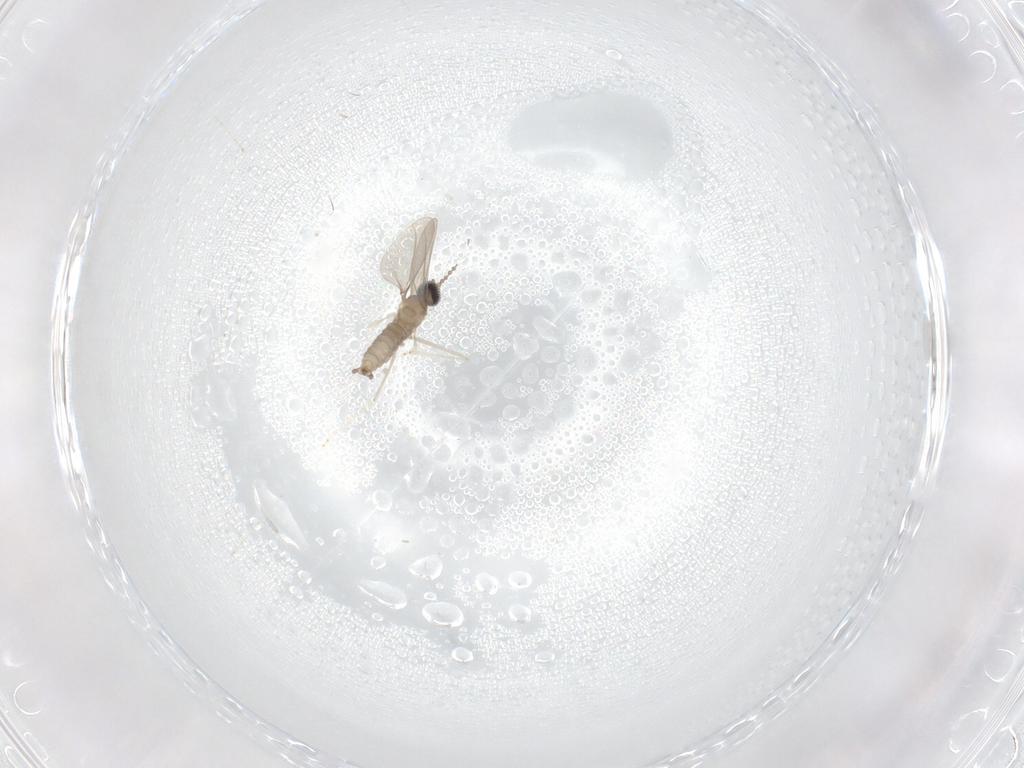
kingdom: Animalia
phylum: Arthropoda
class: Insecta
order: Diptera
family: Cecidomyiidae
